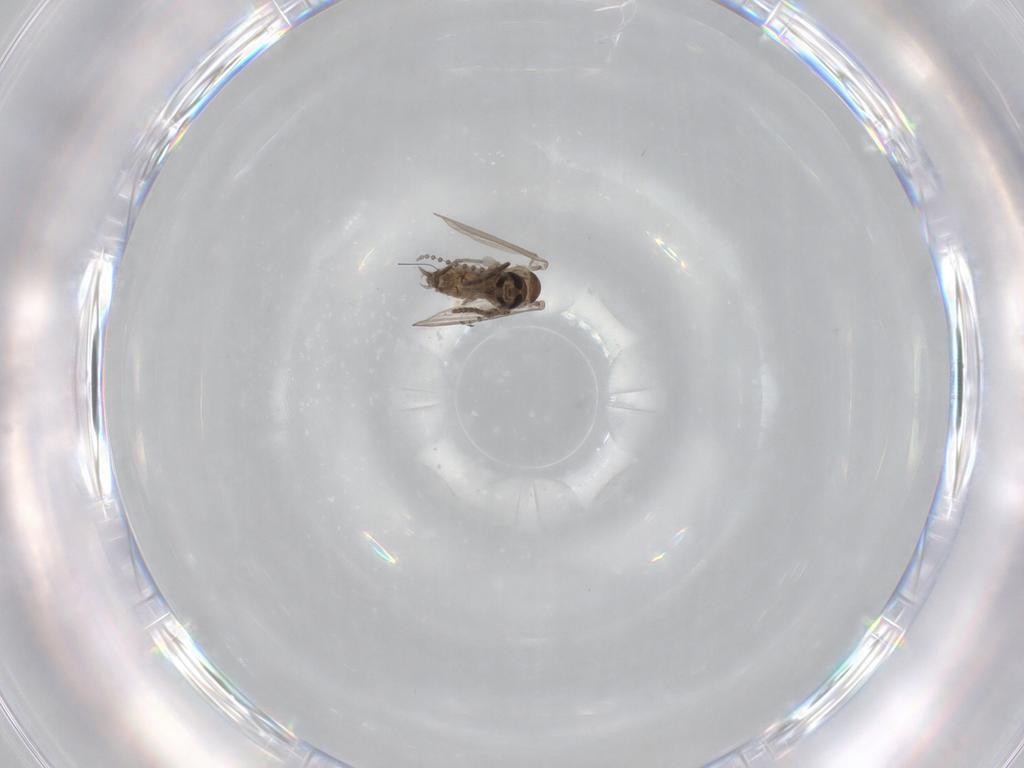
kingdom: Animalia
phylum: Arthropoda
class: Insecta
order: Diptera
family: Psychodidae
